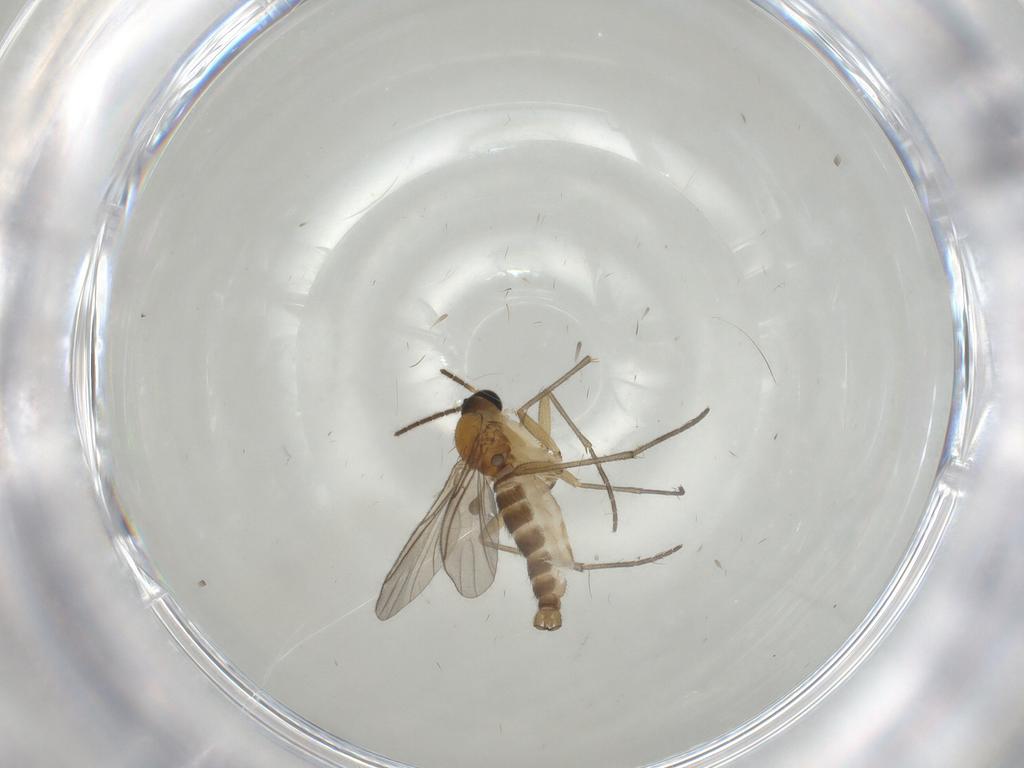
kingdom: Animalia
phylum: Arthropoda
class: Insecta
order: Diptera
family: Sciaridae
